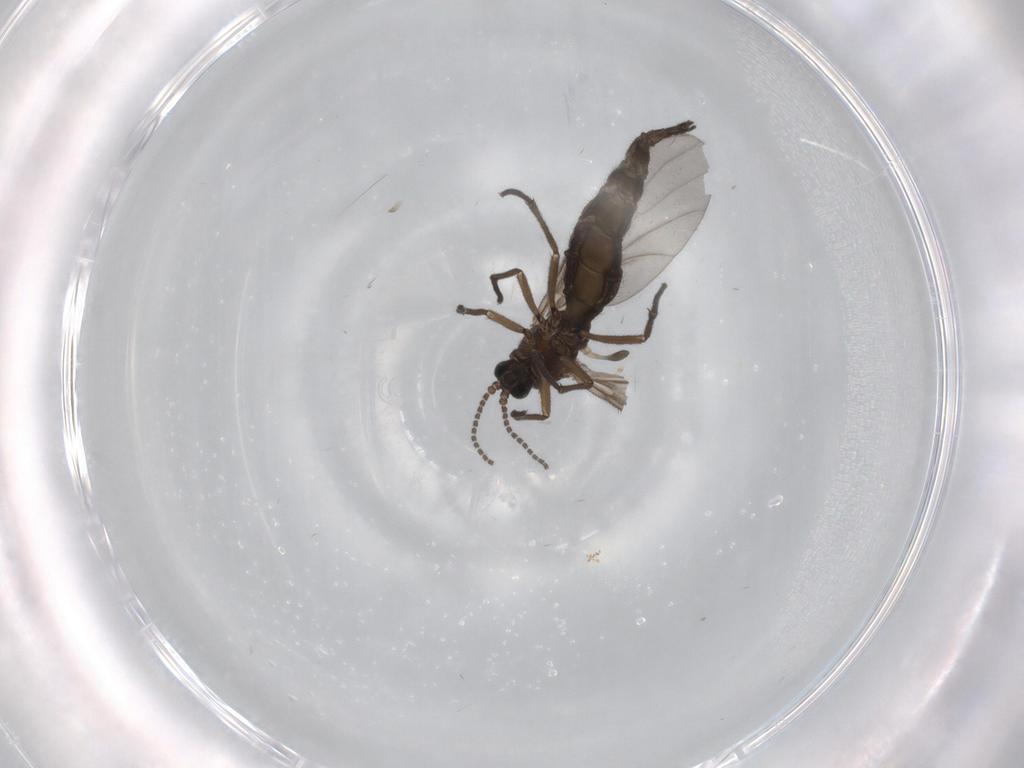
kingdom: Animalia
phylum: Arthropoda
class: Insecta
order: Diptera
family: Sciaridae
